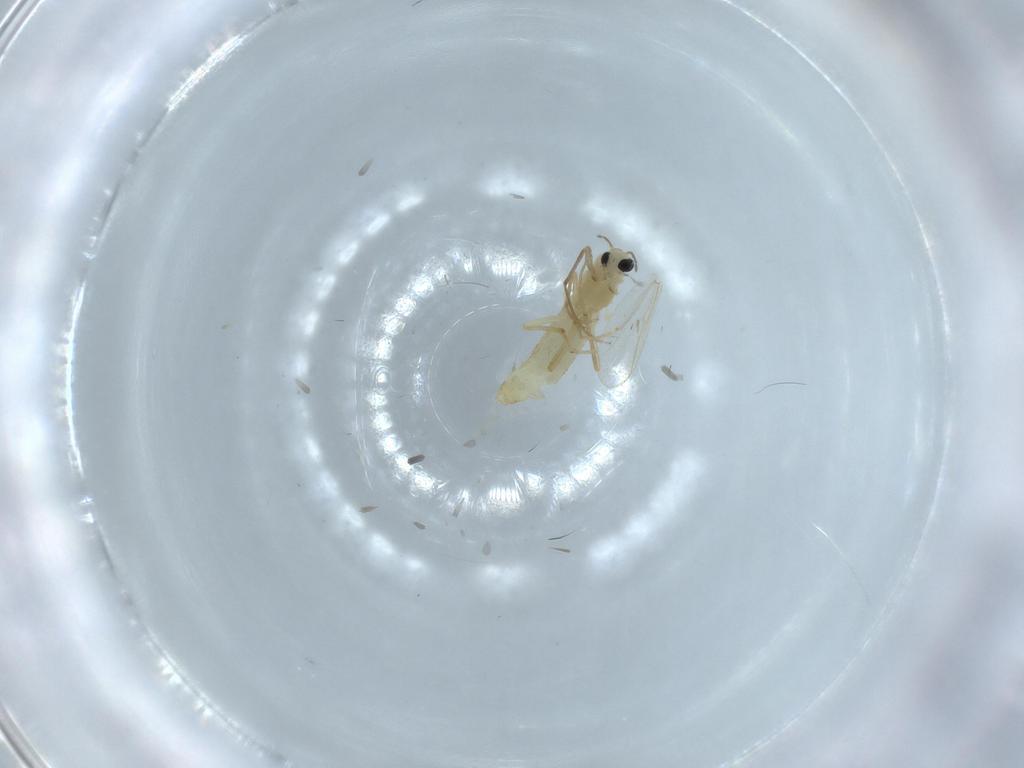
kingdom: Animalia
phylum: Arthropoda
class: Insecta
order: Diptera
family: Chironomidae
